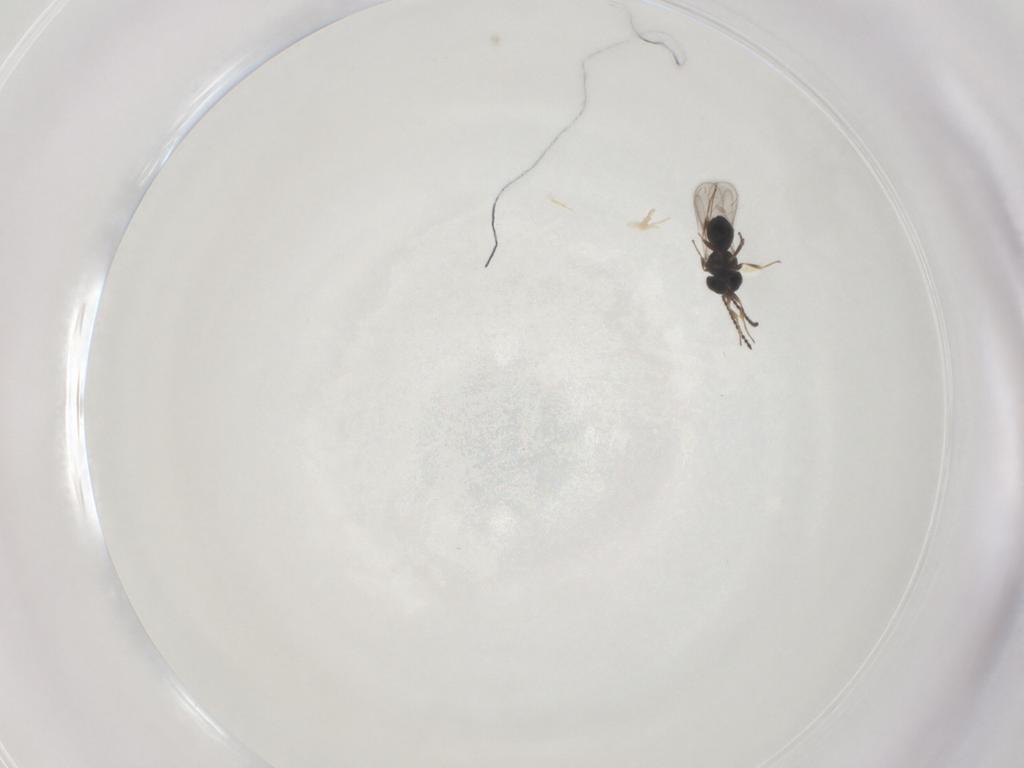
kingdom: Animalia
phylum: Arthropoda
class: Insecta
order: Hymenoptera
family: Scelionidae
